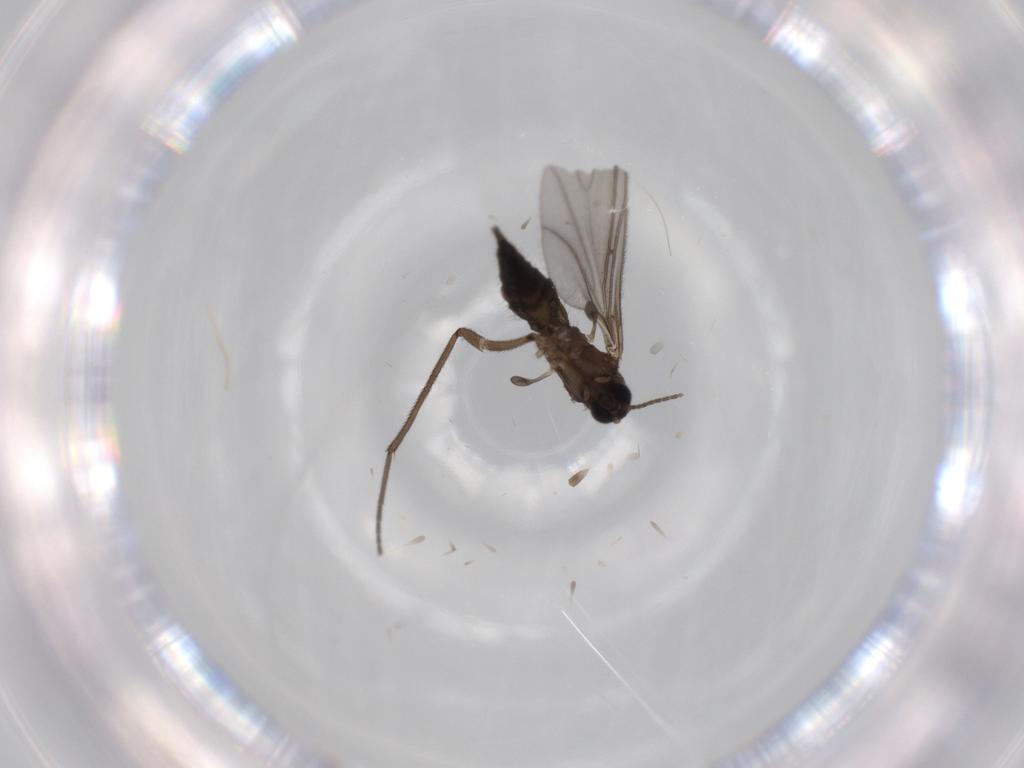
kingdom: Animalia
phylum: Arthropoda
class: Insecta
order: Diptera
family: Sciaridae
